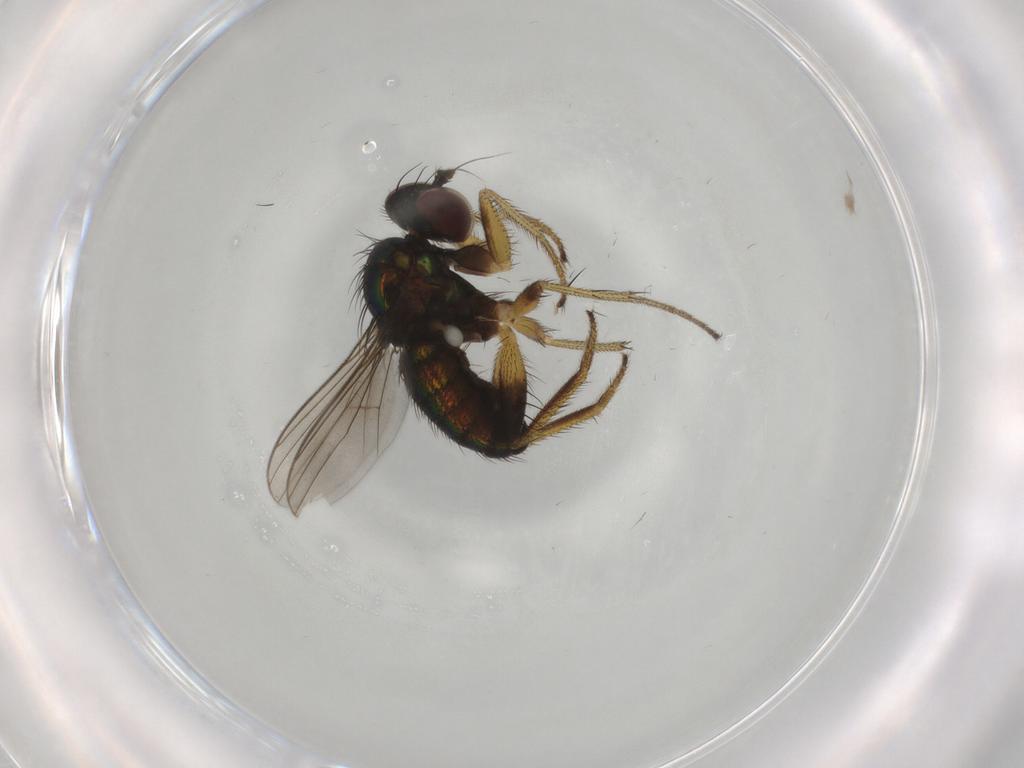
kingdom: Animalia
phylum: Arthropoda
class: Insecta
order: Diptera
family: Dolichopodidae
